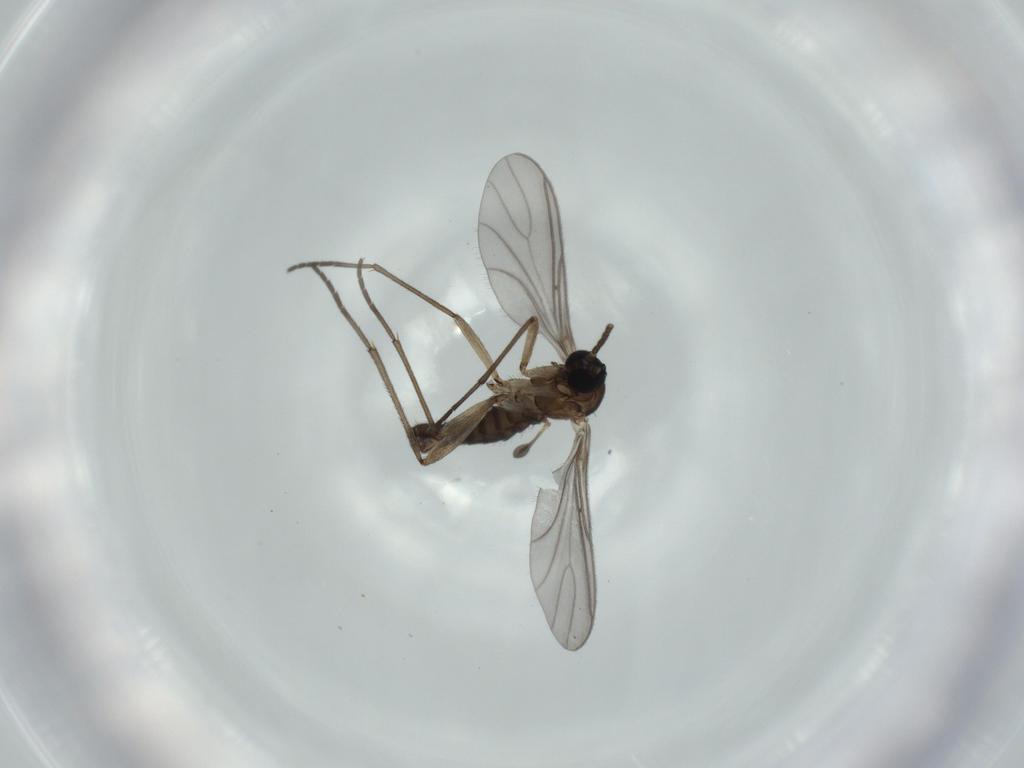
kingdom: Animalia
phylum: Arthropoda
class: Insecta
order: Diptera
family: Sciaridae
